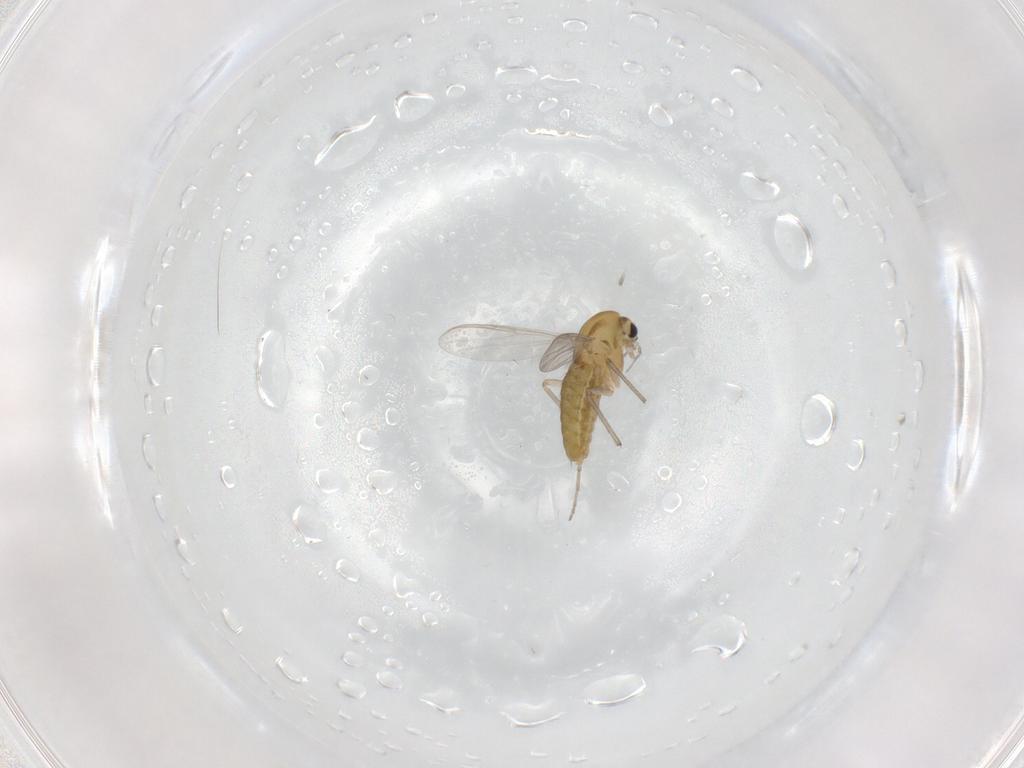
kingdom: Animalia
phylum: Arthropoda
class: Insecta
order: Diptera
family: Chironomidae
